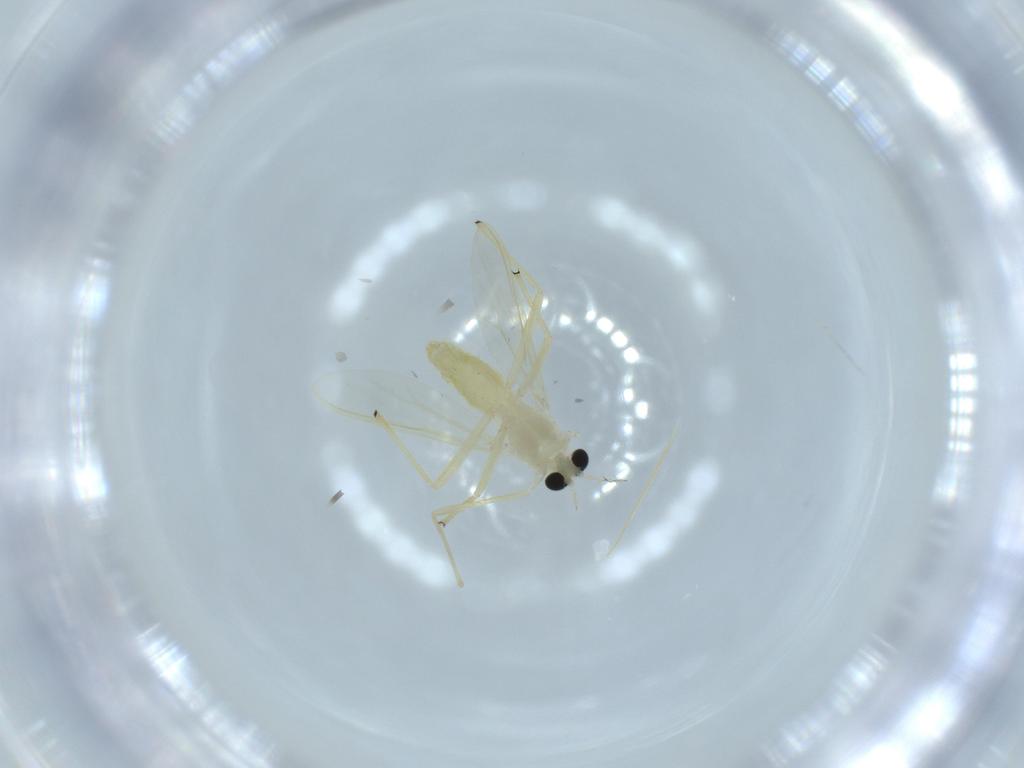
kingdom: Animalia
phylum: Arthropoda
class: Insecta
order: Diptera
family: Chironomidae
